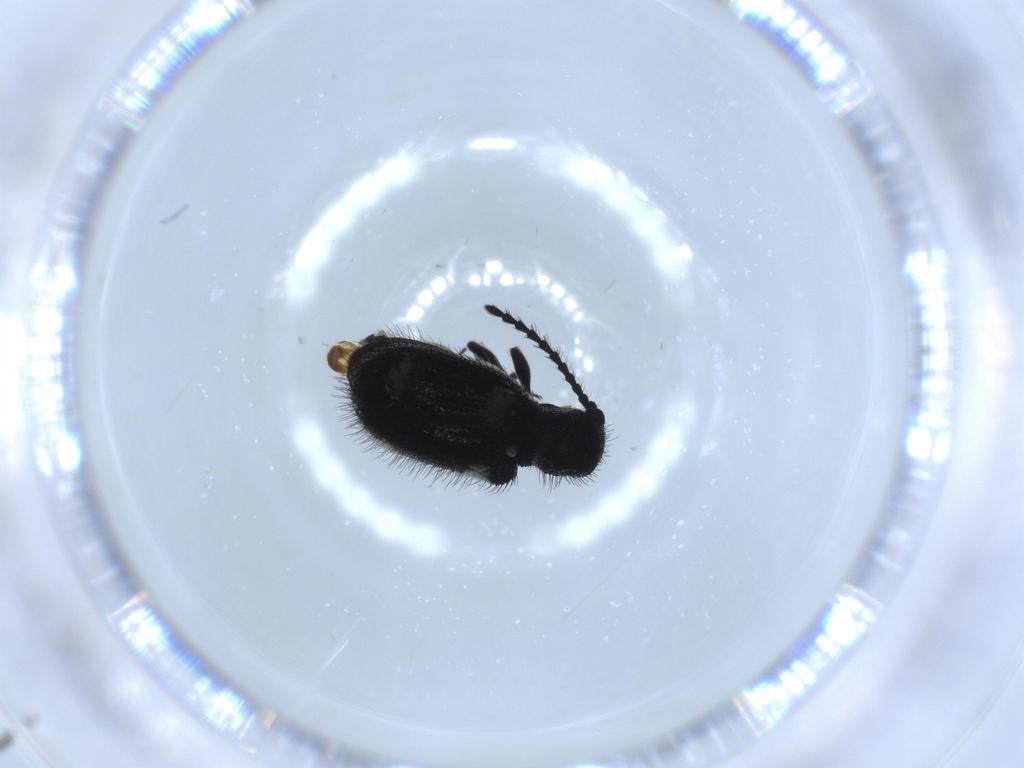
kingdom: Animalia
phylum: Arthropoda
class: Insecta
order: Coleoptera
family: Ptinidae
